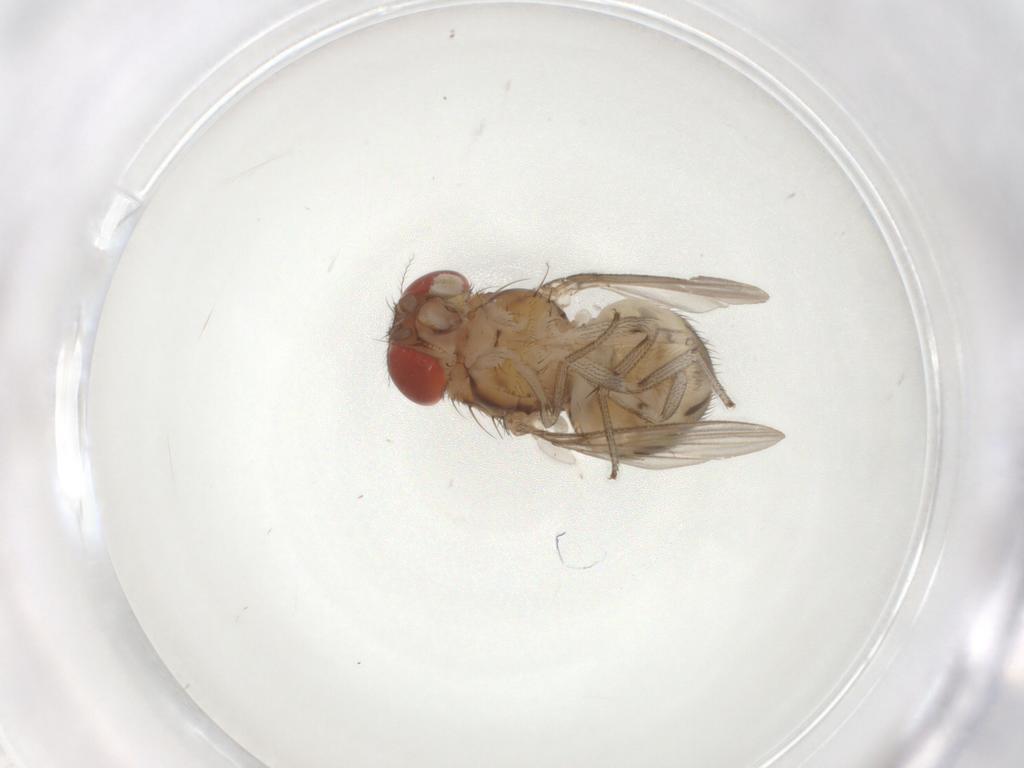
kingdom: Animalia
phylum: Arthropoda
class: Insecta
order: Diptera
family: Drosophilidae
